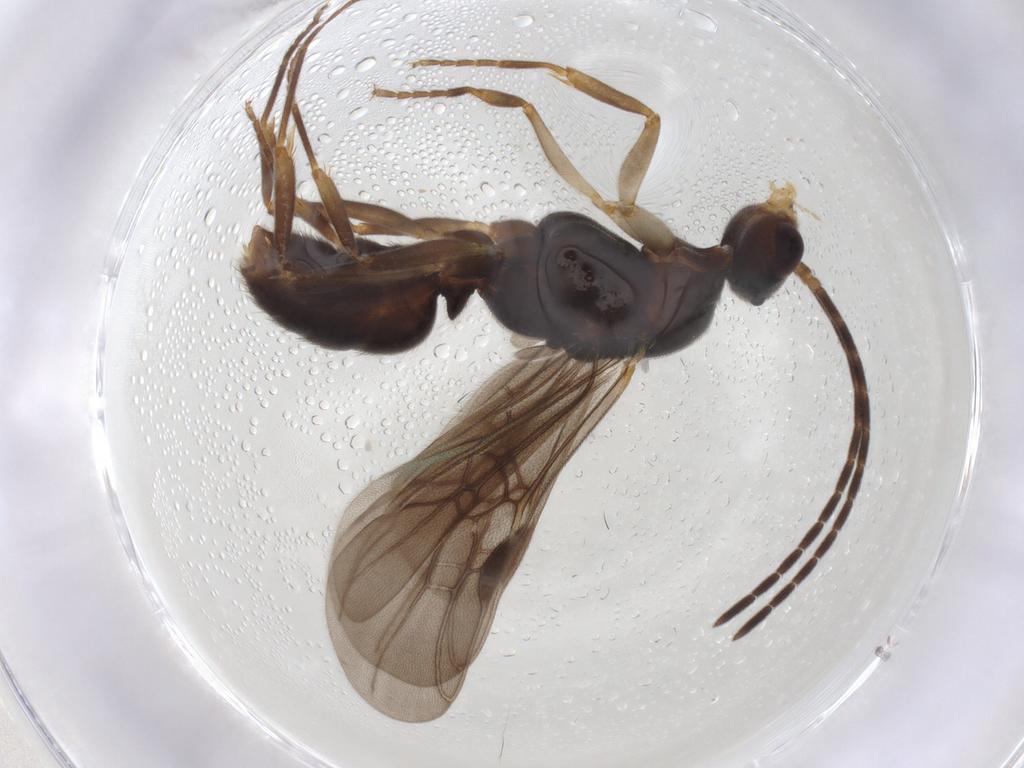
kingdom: Animalia
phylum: Arthropoda
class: Insecta
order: Hymenoptera
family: Formicidae
